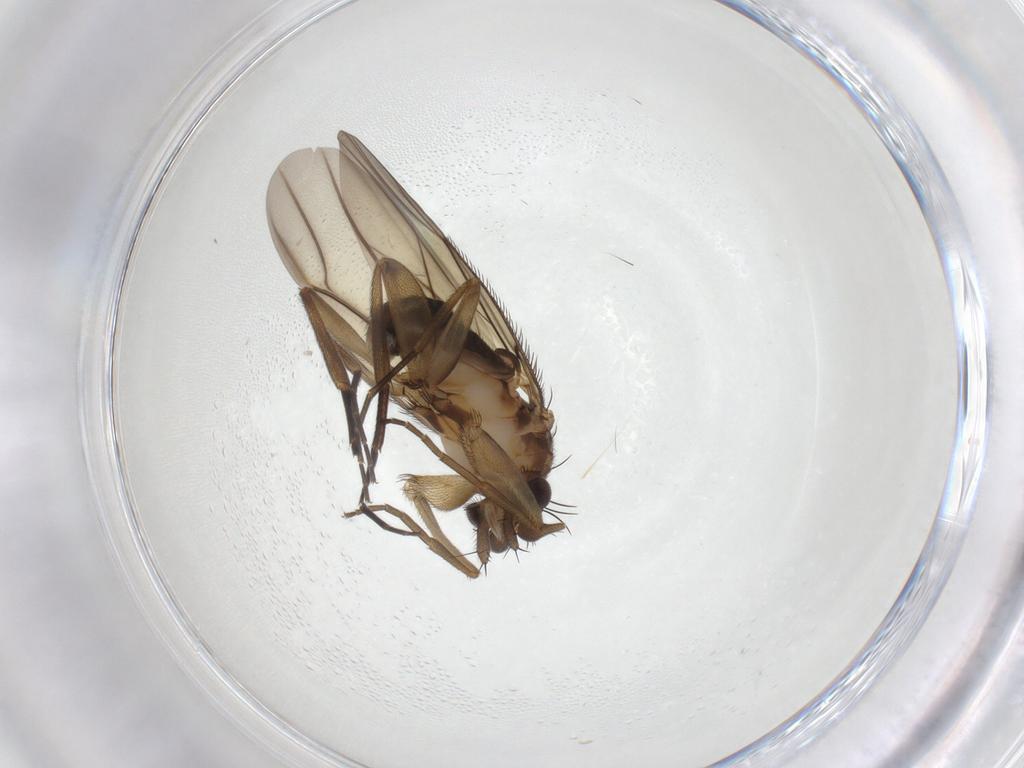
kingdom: Animalia
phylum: Arthropoda
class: Insecta
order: Diptera
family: Phoridae
